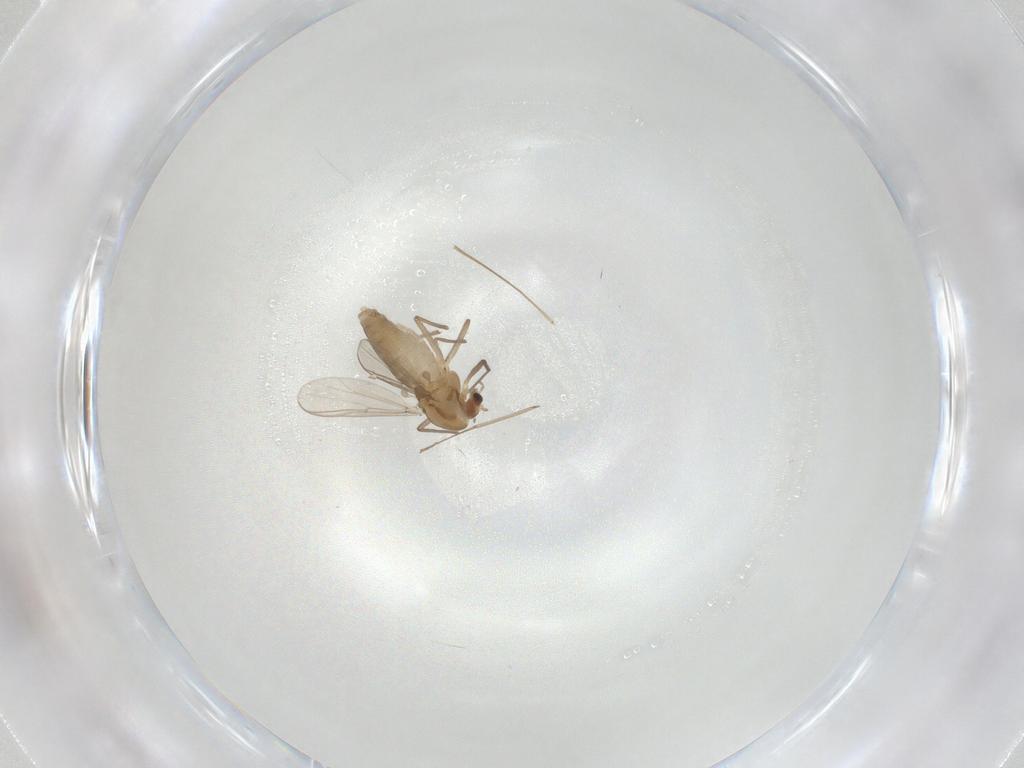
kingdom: Animalia
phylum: Arthropoda
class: Insecta
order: Diptera
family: Chironomidae
